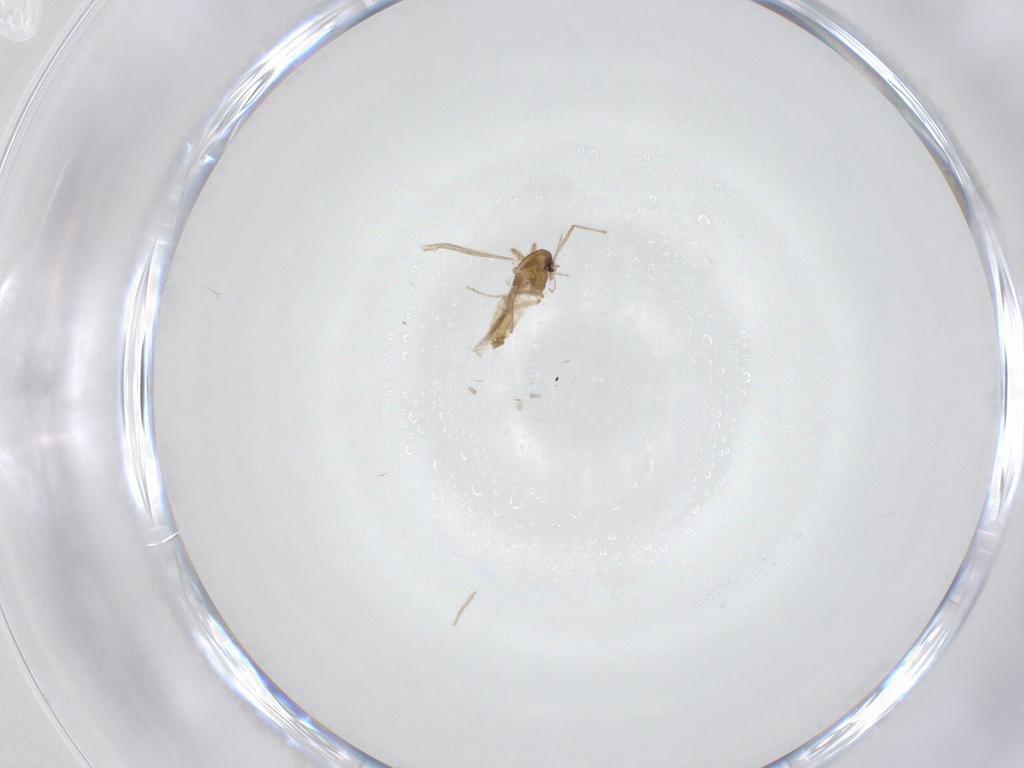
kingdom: Animalia
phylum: Arthropoda
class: Insecta
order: Diptera
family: Chironomidae
